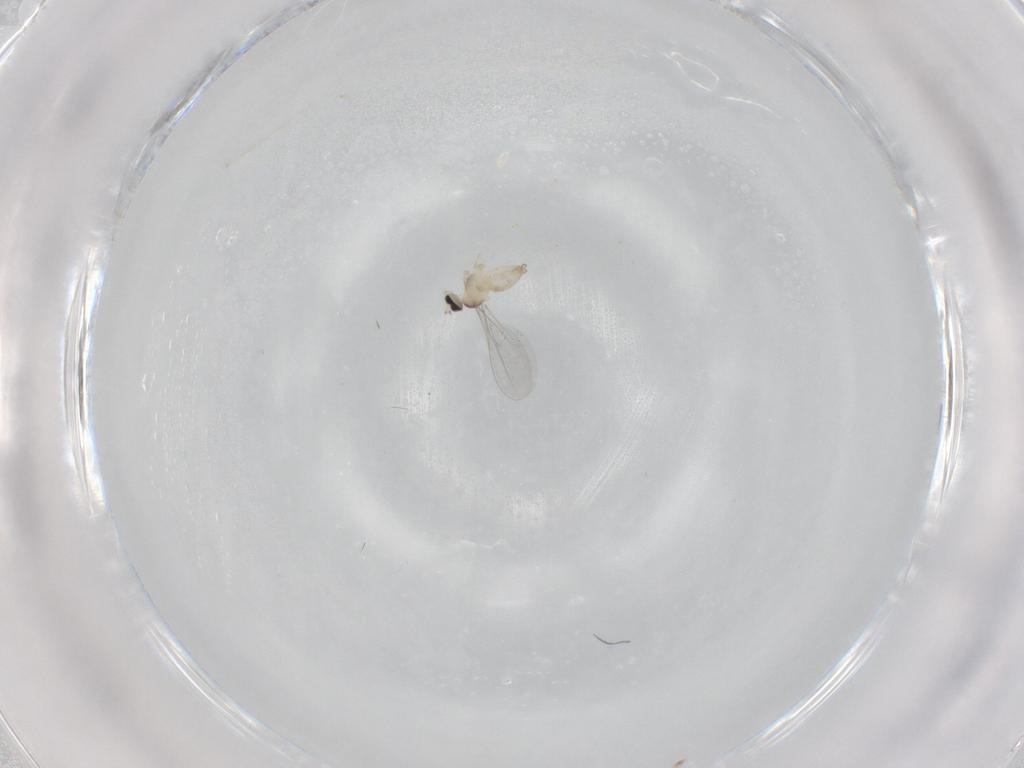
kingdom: Animalia
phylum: Arthropoda
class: Insecta
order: Diptera
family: Cecidomyiidae
